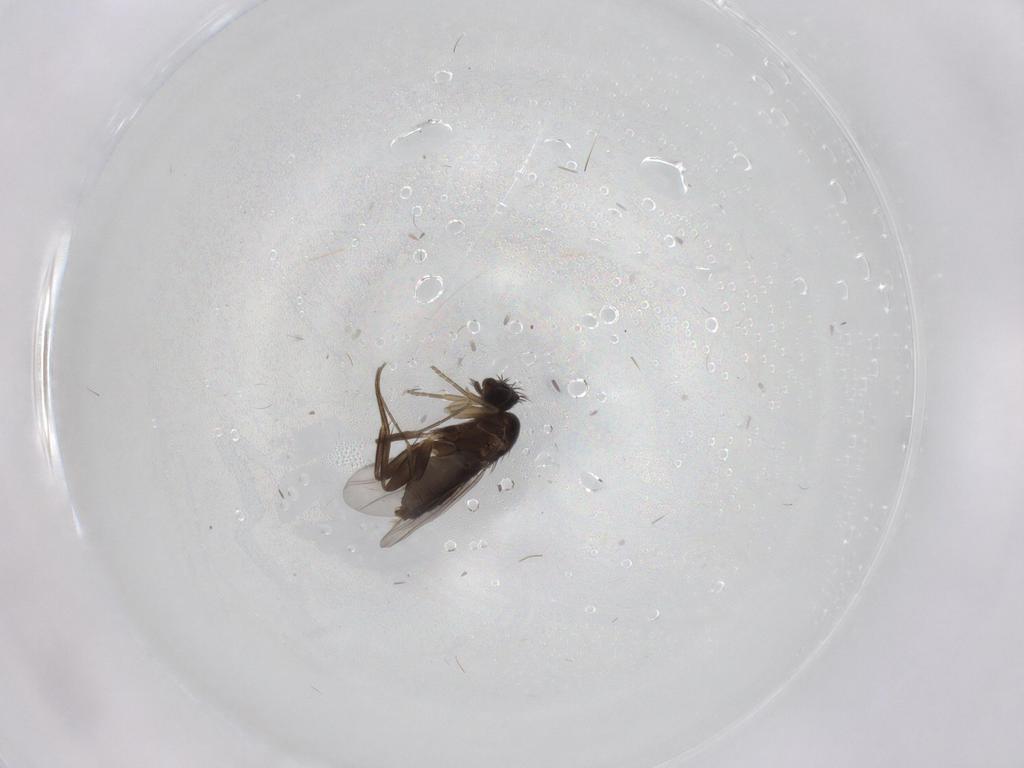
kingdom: Animalia
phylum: Arthropoda
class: Insecta
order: Diptera
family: Phoridae
